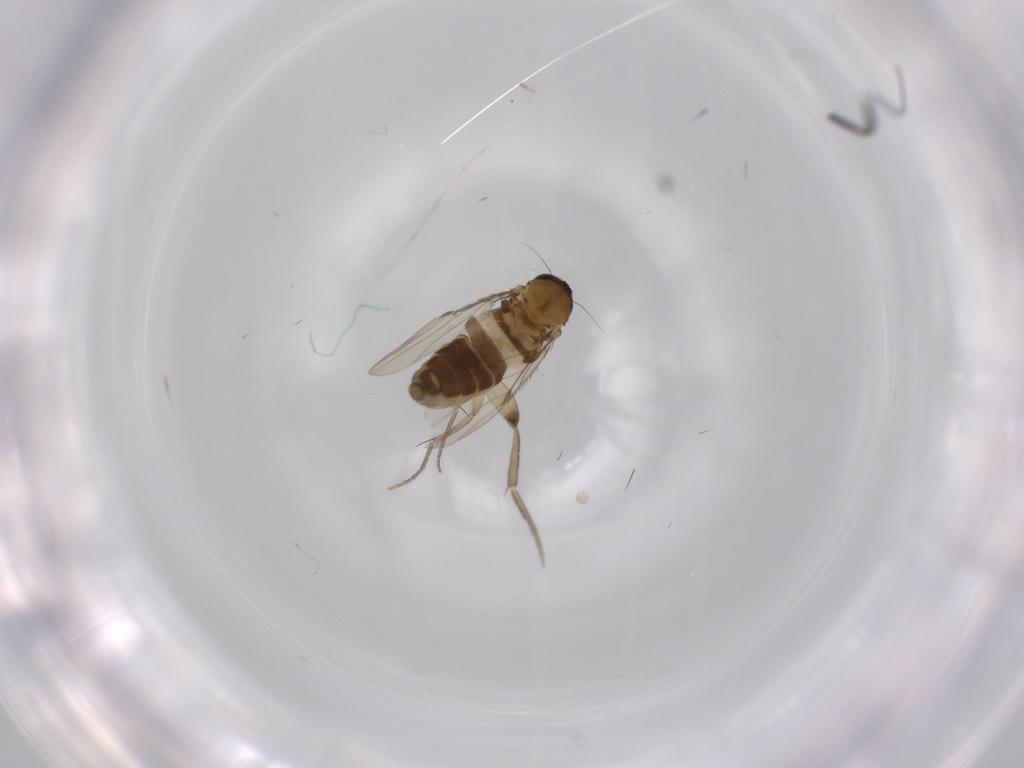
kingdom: Animalia
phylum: Arthropoda
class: Insecta
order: Diptera
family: Phoridae
